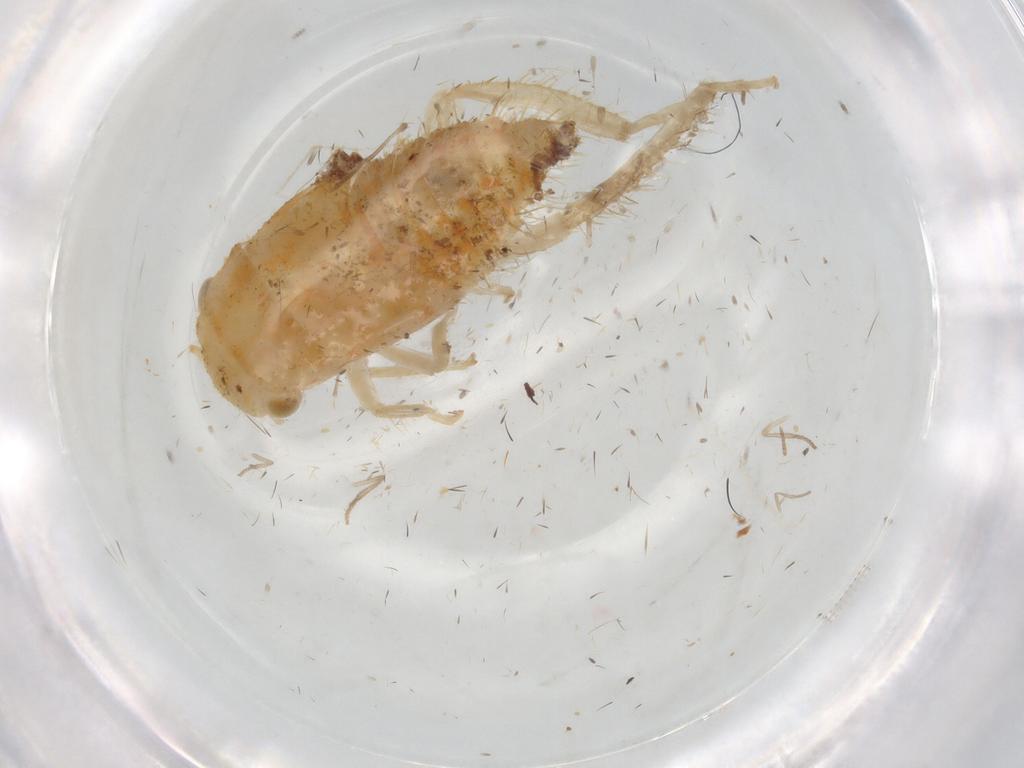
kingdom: Animalia
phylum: Arthropoda
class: Insecta
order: Hemiptera
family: Cicadellidae
